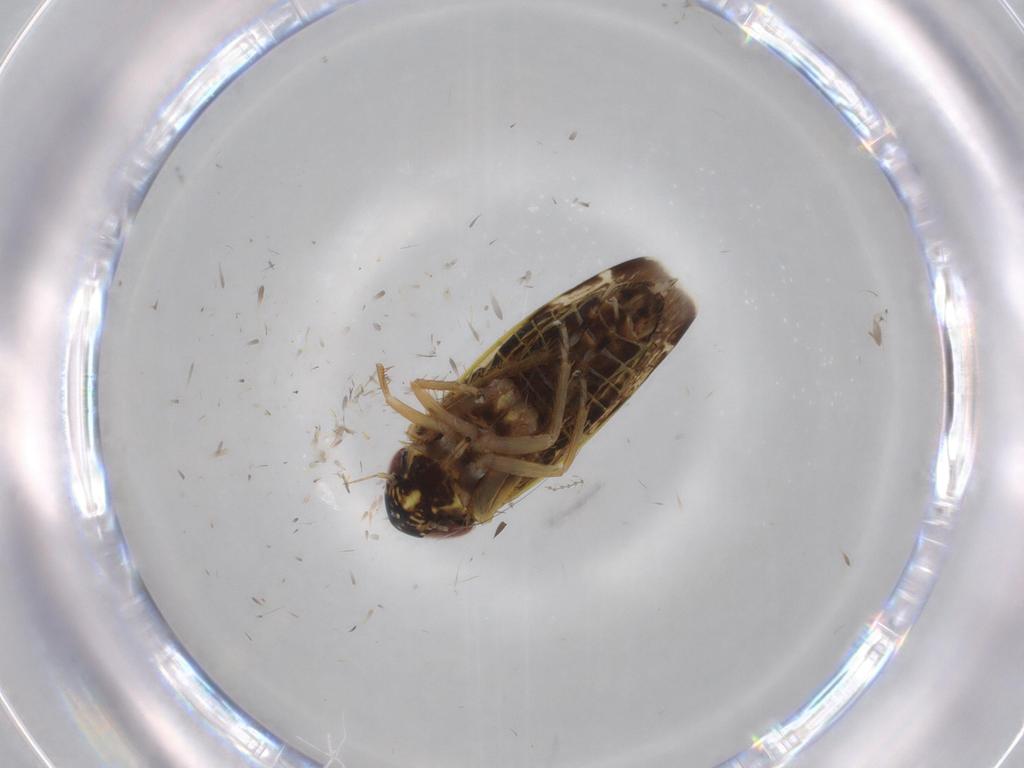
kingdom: Animalia
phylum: Arthropoda
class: Insecta
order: Hemiptera
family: Cicadellidae
